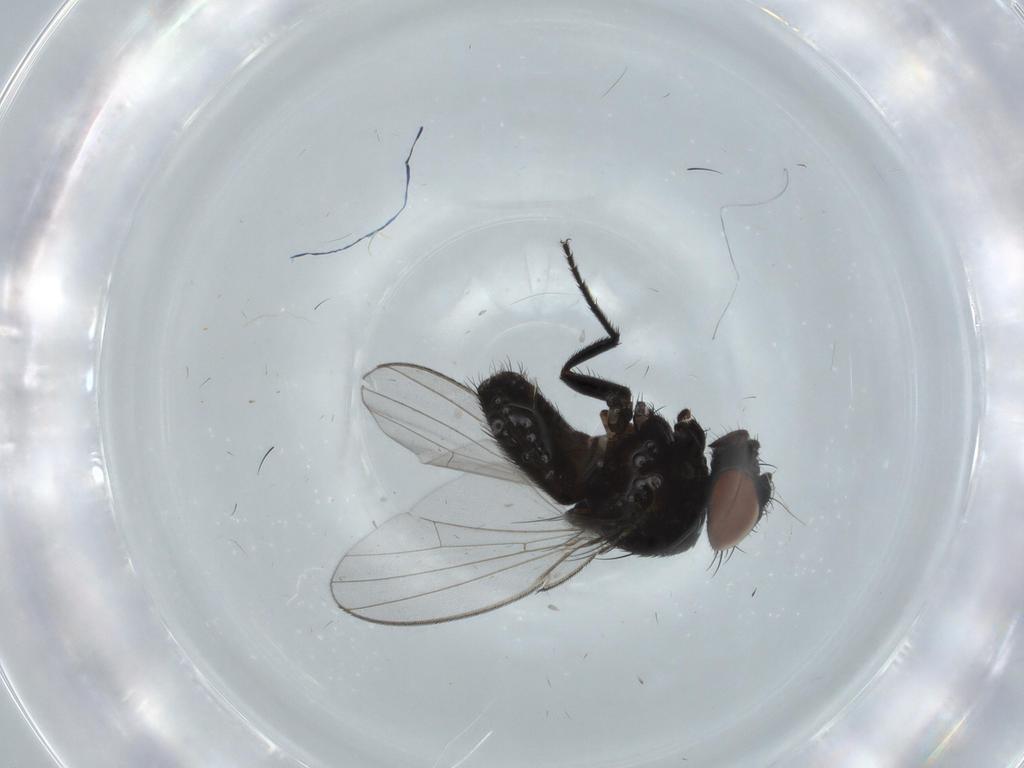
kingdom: Animalia
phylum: Arthropoda
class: Insecta
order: Diptera
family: Milichiidae
